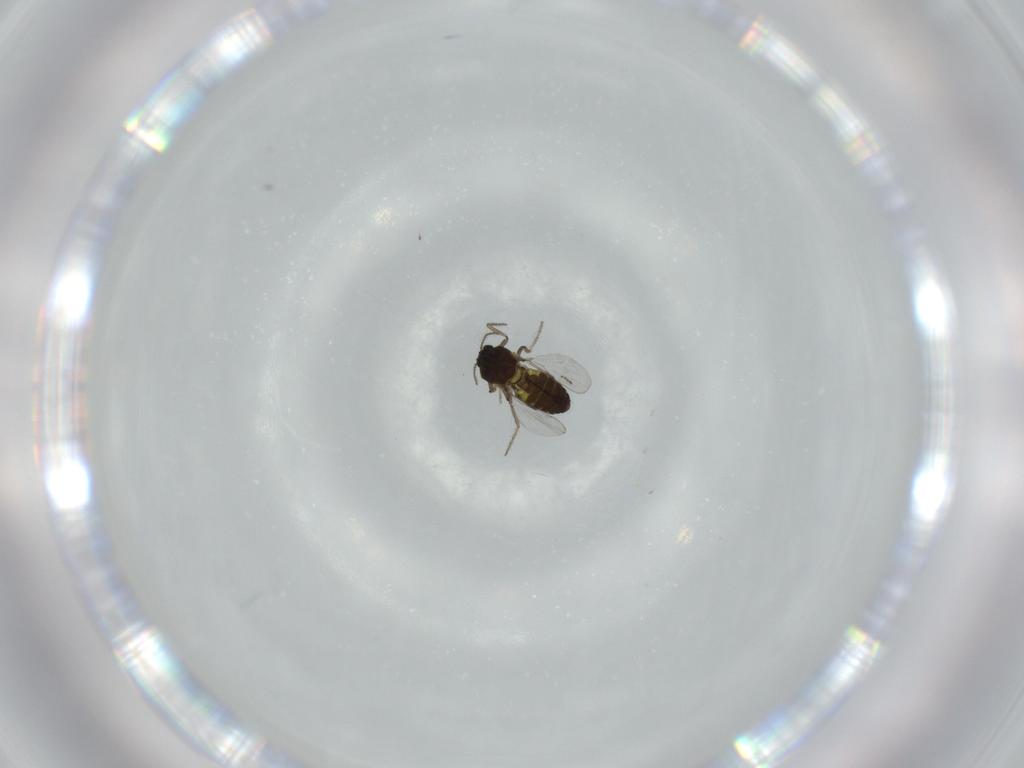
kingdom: Animalia
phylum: Arthropoda
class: Insecta
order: Diptera
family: Ceratopogonidae
